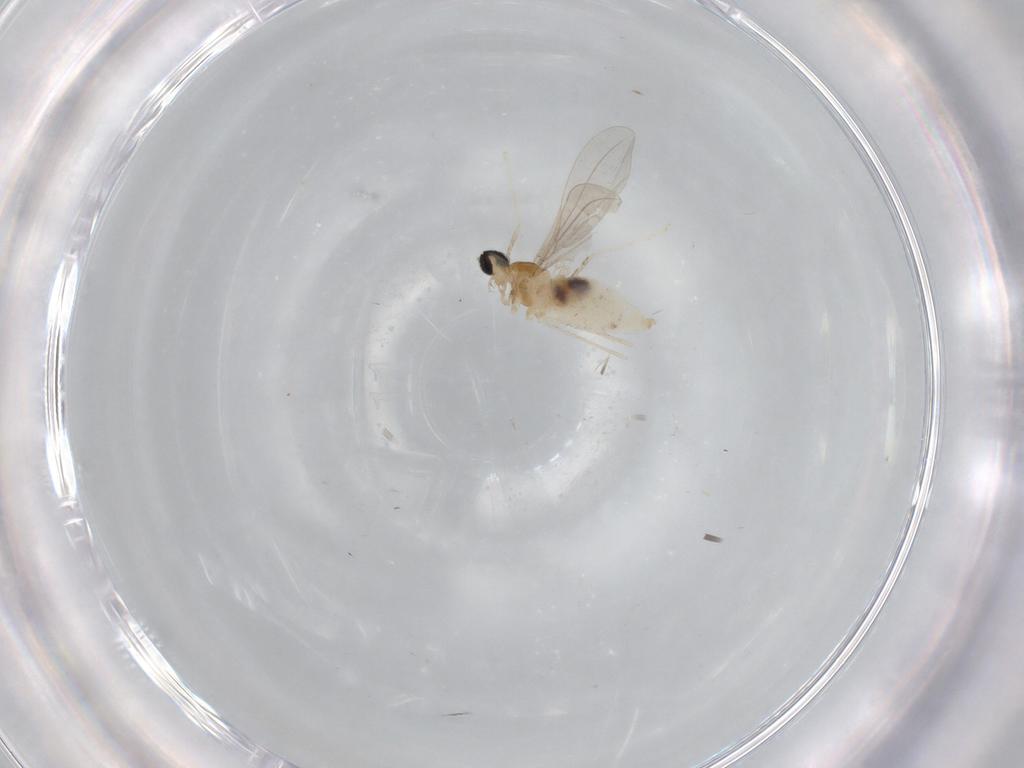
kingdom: Animalia
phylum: Arthropoda
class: Insecta
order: Diptera
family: Cecidomyiidae
